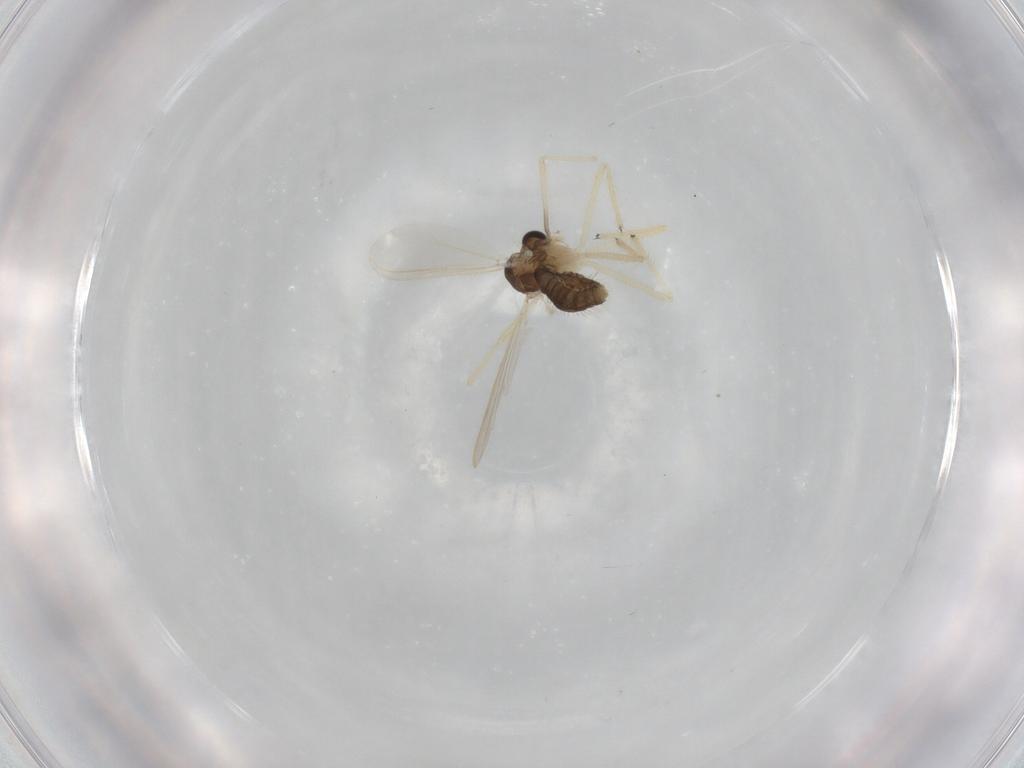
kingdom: Animalia
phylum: Arthropoda
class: Insecta
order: Diptera
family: Chironomidae
